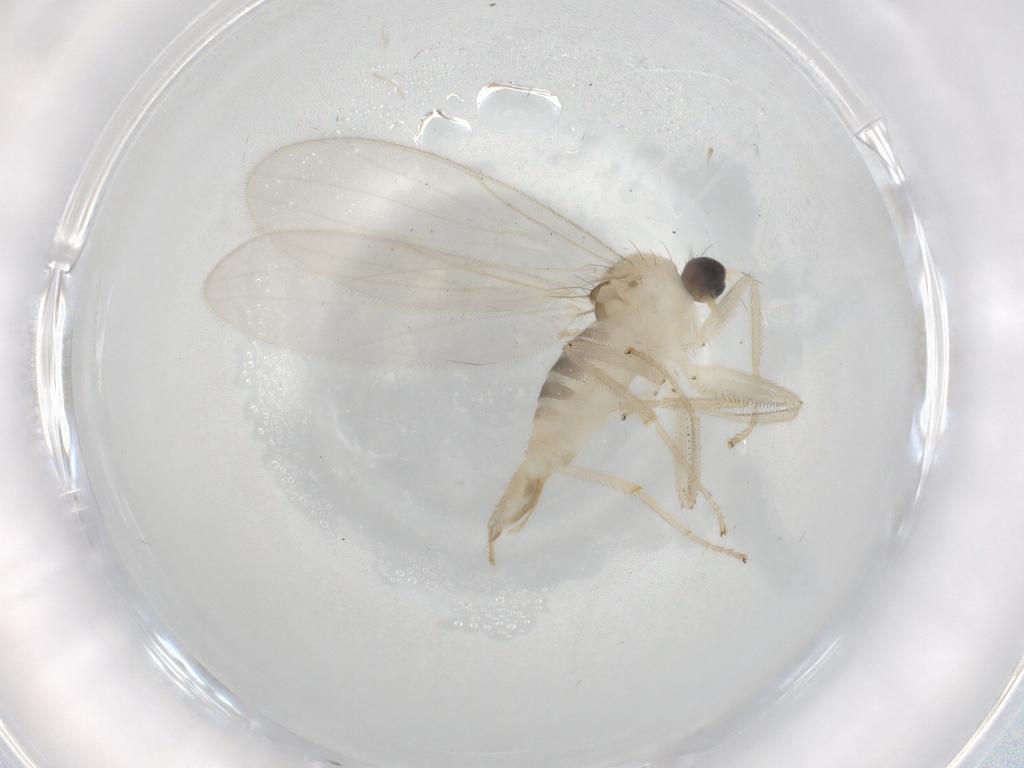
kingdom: Animalia
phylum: Arthropoda
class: Insecta
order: Diptera
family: Hybotidae
